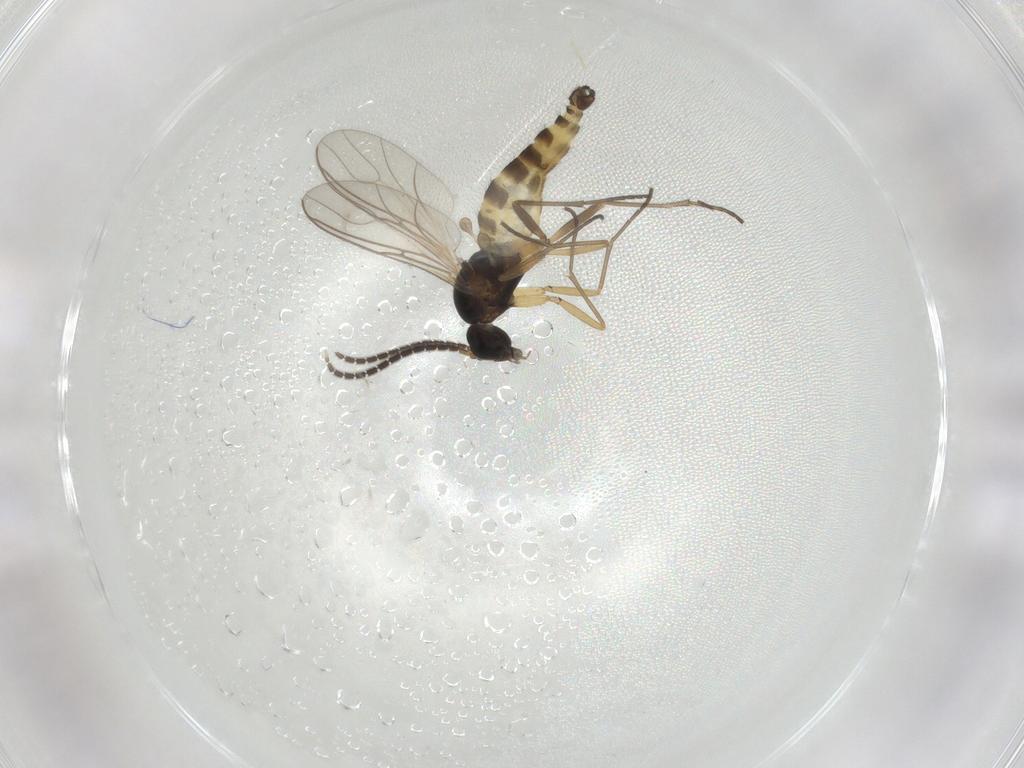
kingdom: Animalia
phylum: Arthropoda
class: Insecta
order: Diptera
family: Sciaridae
